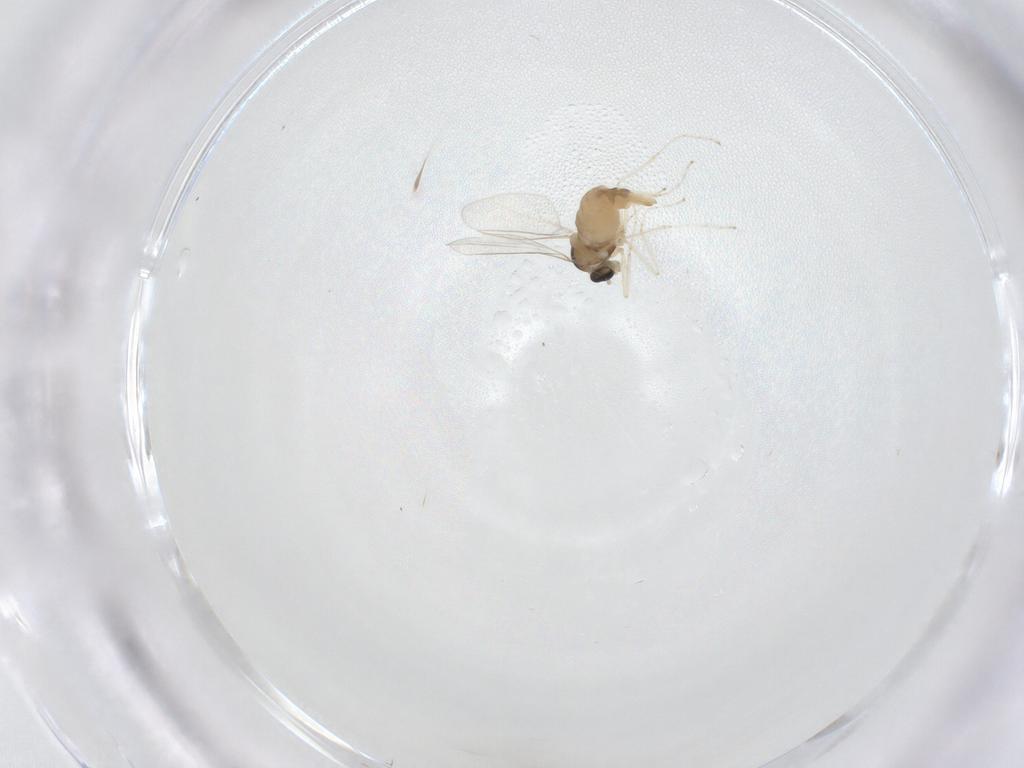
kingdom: Animalia
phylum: Arthropoda
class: Insecta
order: Diptera
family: Cecidomyiidae
